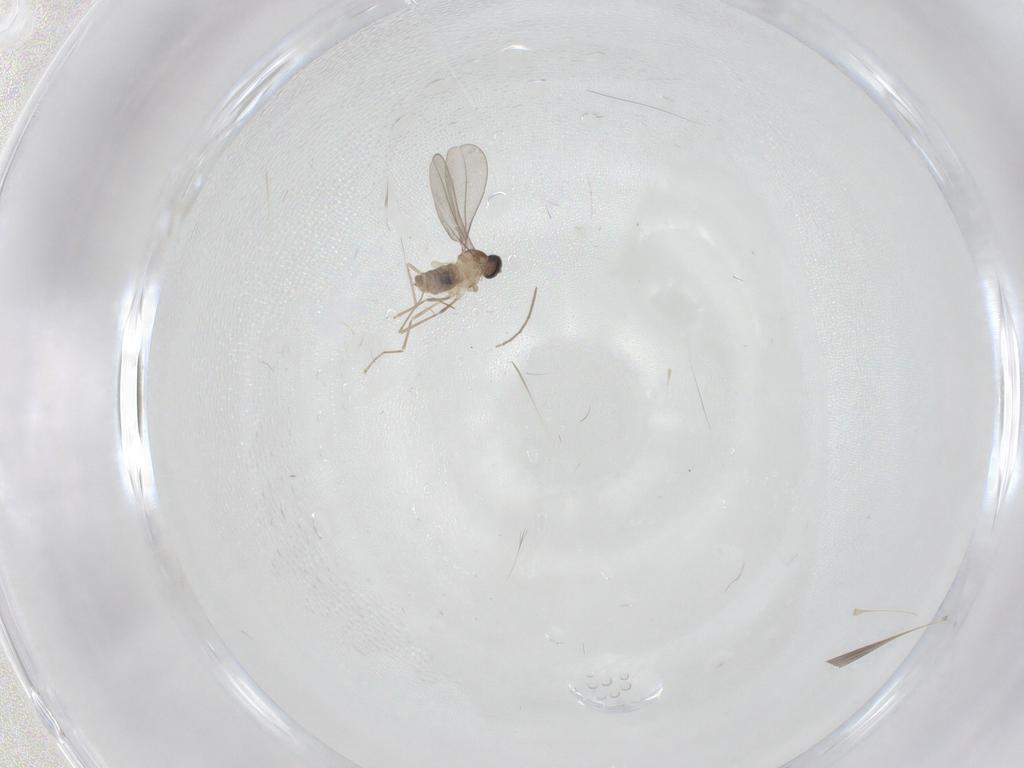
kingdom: Animalia
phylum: Arthropoda
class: Insecta
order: Diptera
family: Cecidomyiidae
